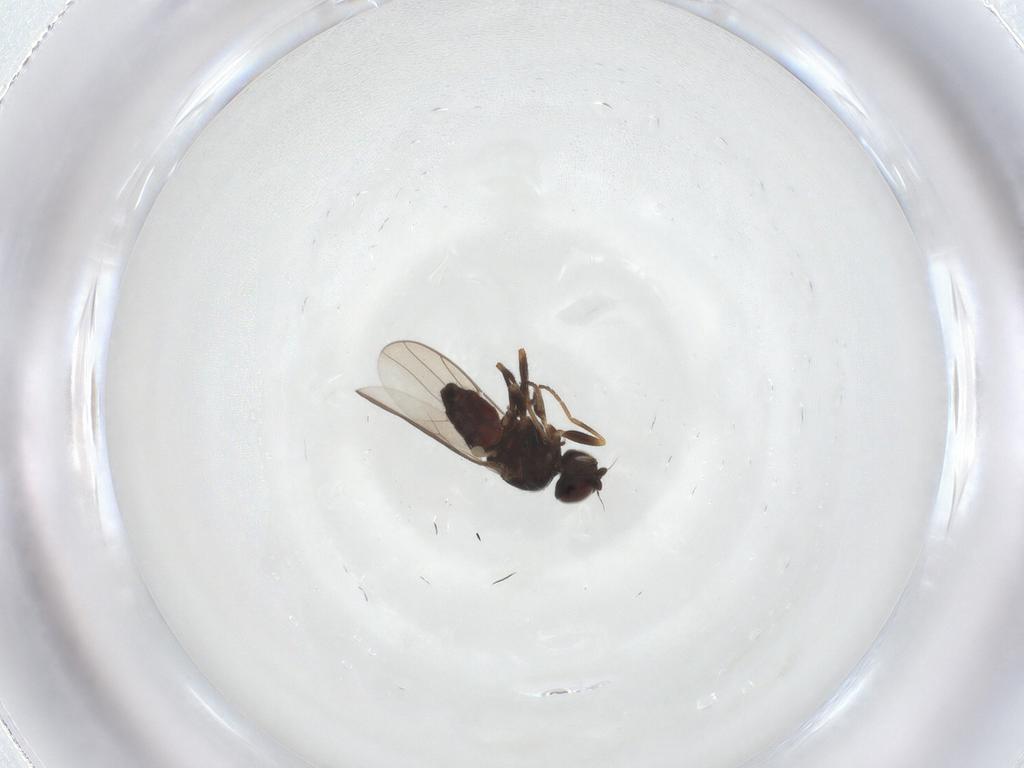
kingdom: Animalia
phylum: Arthropoda
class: Insecta
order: Diptera
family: Chloropidae
